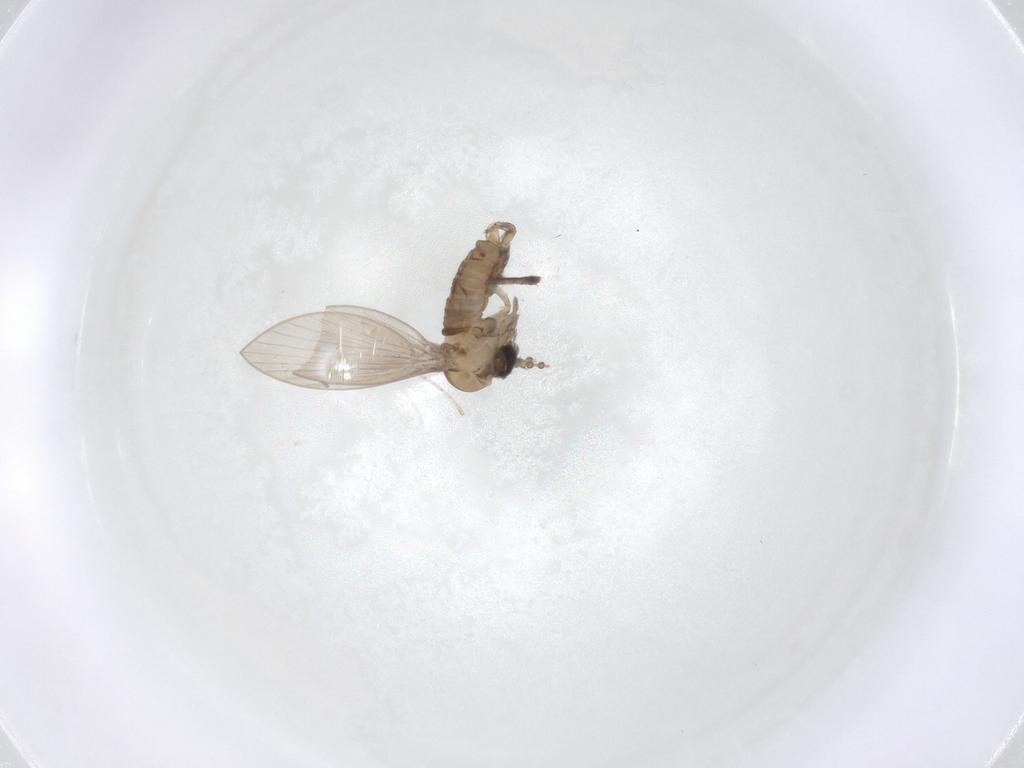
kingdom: Animalia
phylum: Arthropoda
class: Insecta
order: Diptera
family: Psychodidae
